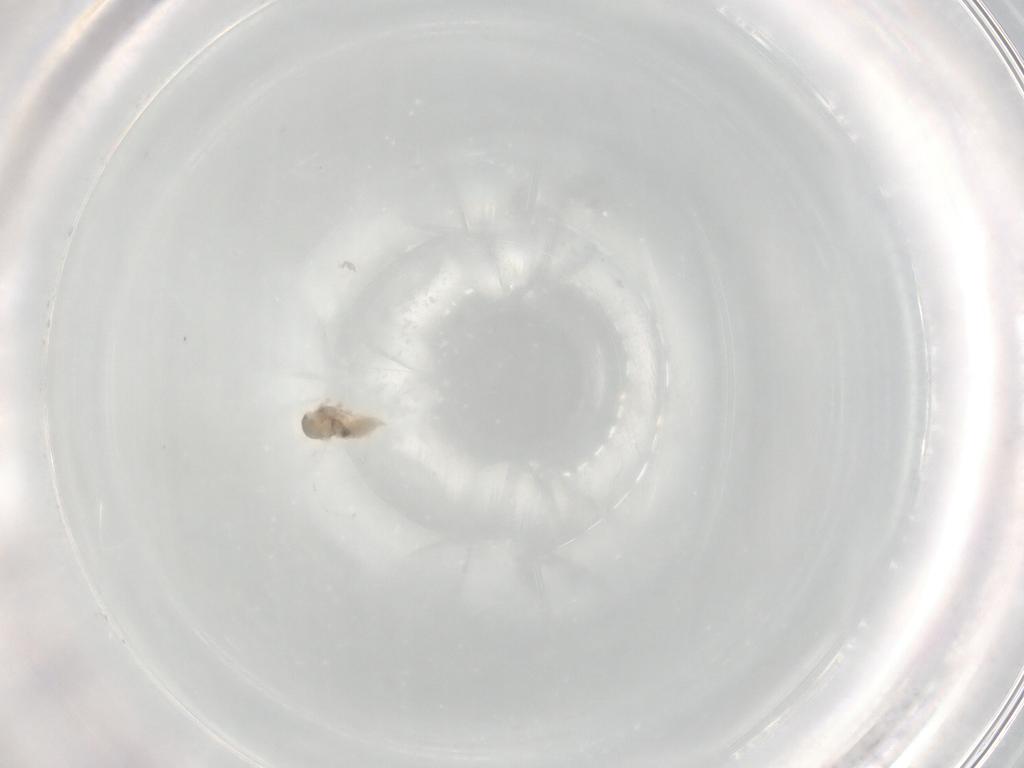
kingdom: Animalia
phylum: Arthropoda
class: Insecta
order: Diptera
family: Cecidomyiidae
